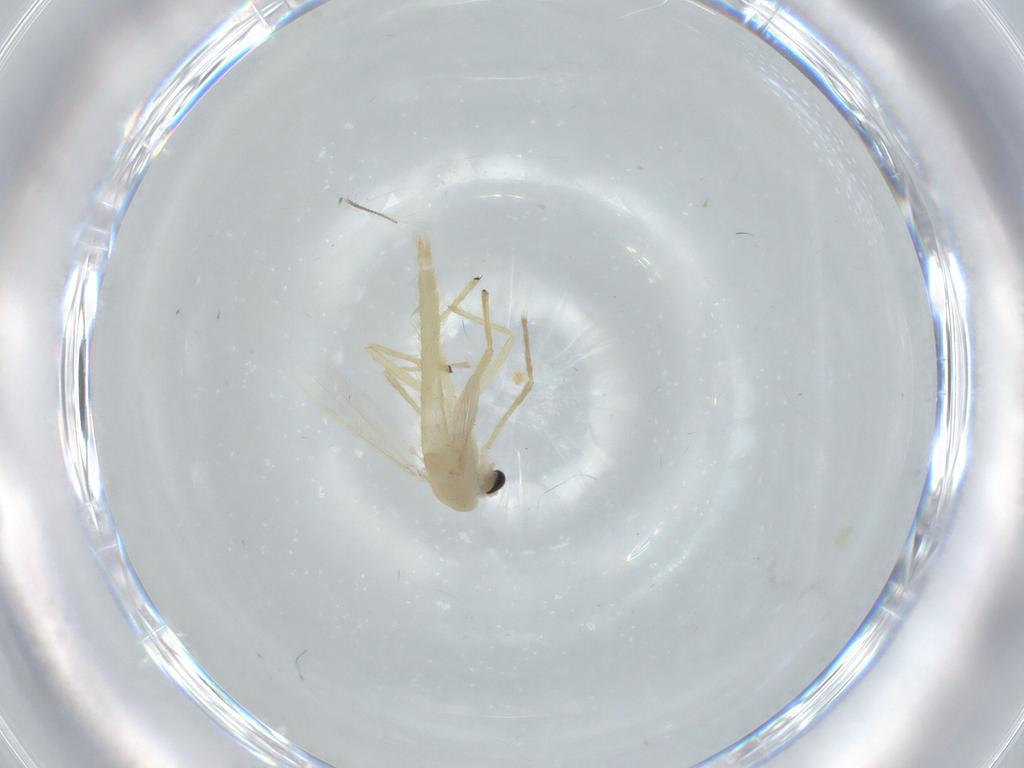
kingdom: Animalia
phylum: Arthropoda
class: Insecta
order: Diptera
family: Chironomidae
